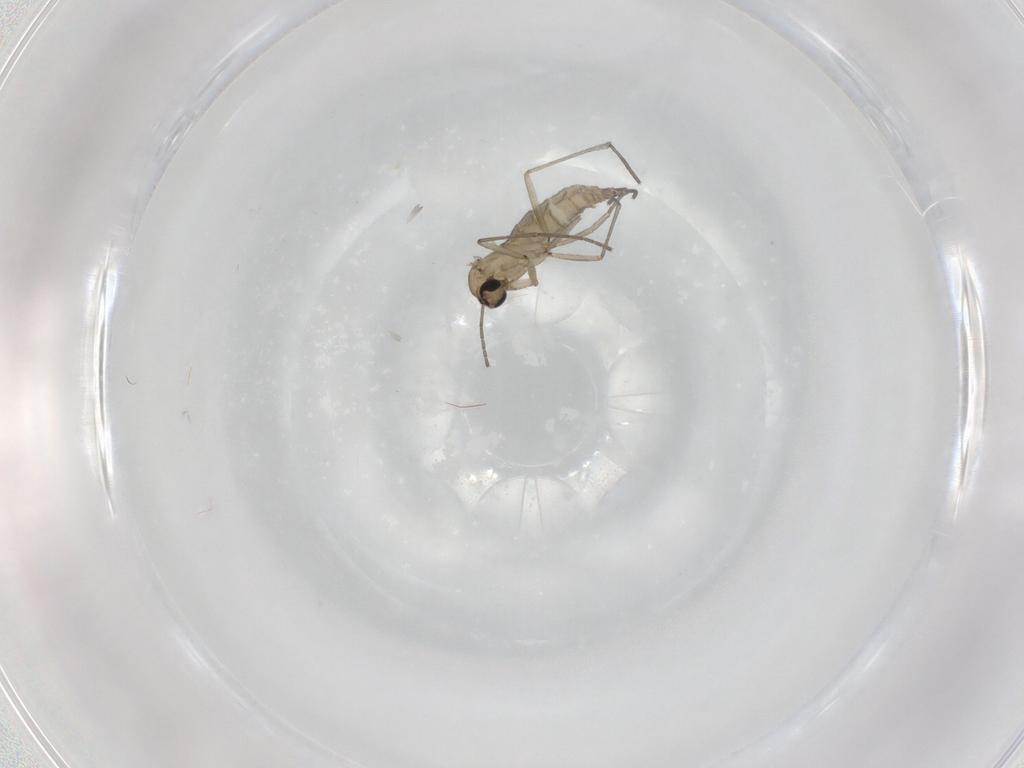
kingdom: Animalia
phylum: Arthropoda
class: Insecta
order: Diptera
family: Sciaridae
